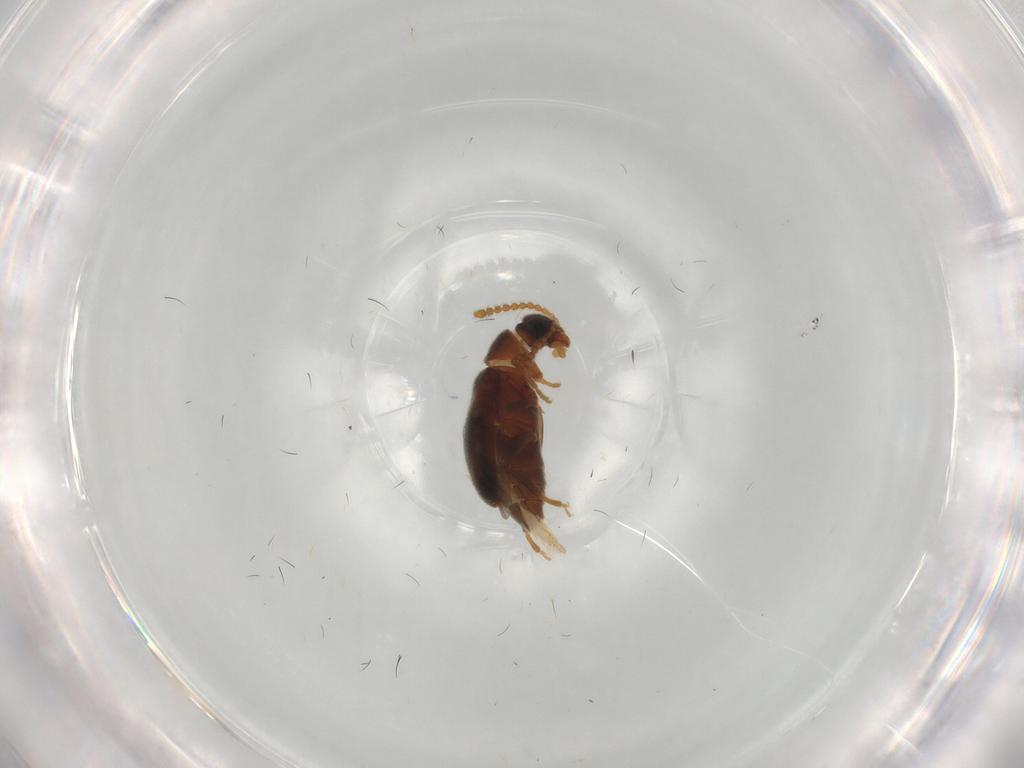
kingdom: Animalia
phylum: Arthropoda
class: Insecta
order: Coleoptera
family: Aderidae
